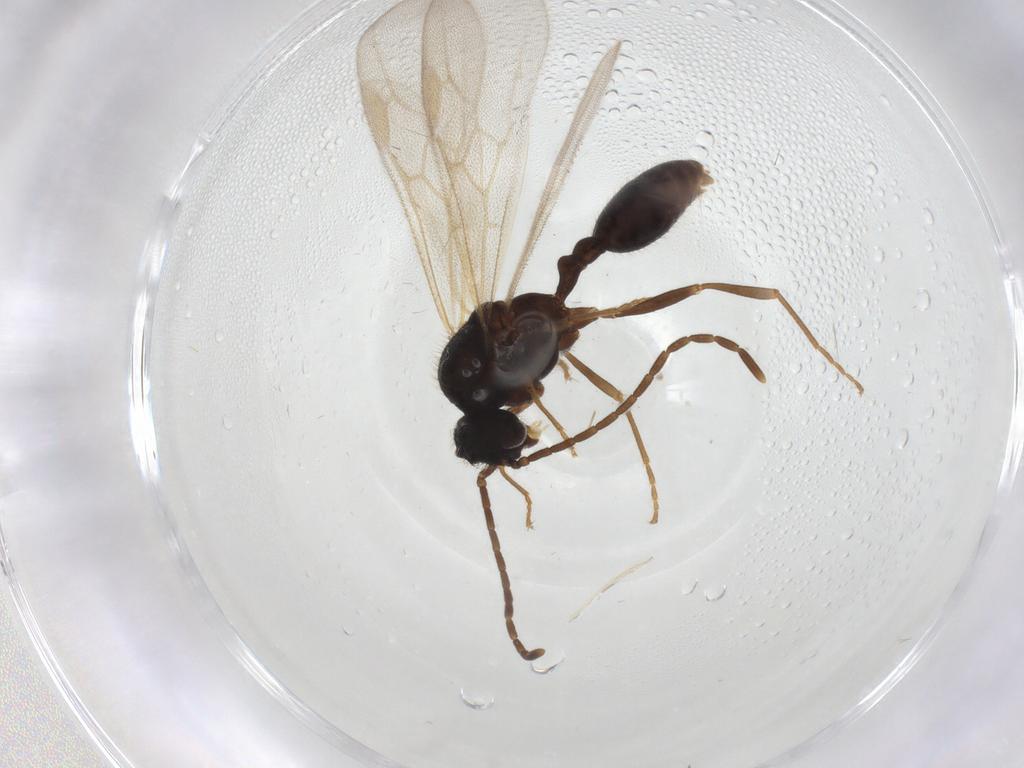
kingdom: Animalia
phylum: Arthropoda
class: Insecta
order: Hymenoptera
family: Formicidae
